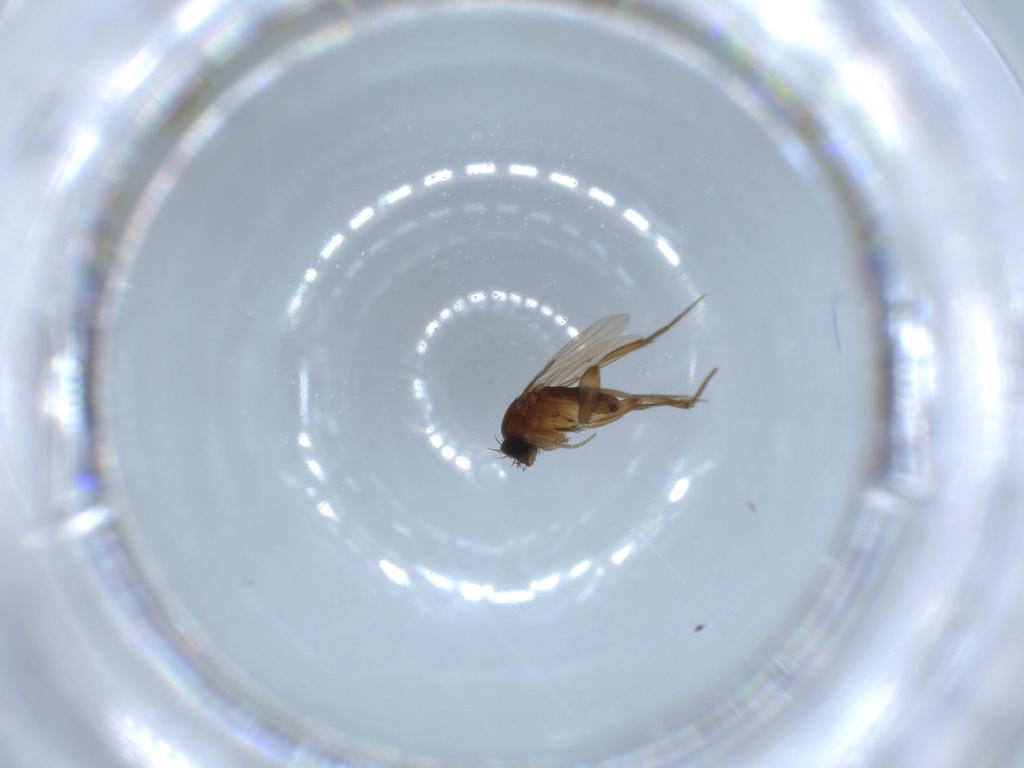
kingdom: Animalia
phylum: Arthropoda
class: Insecta
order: Diptera
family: Phoridae
